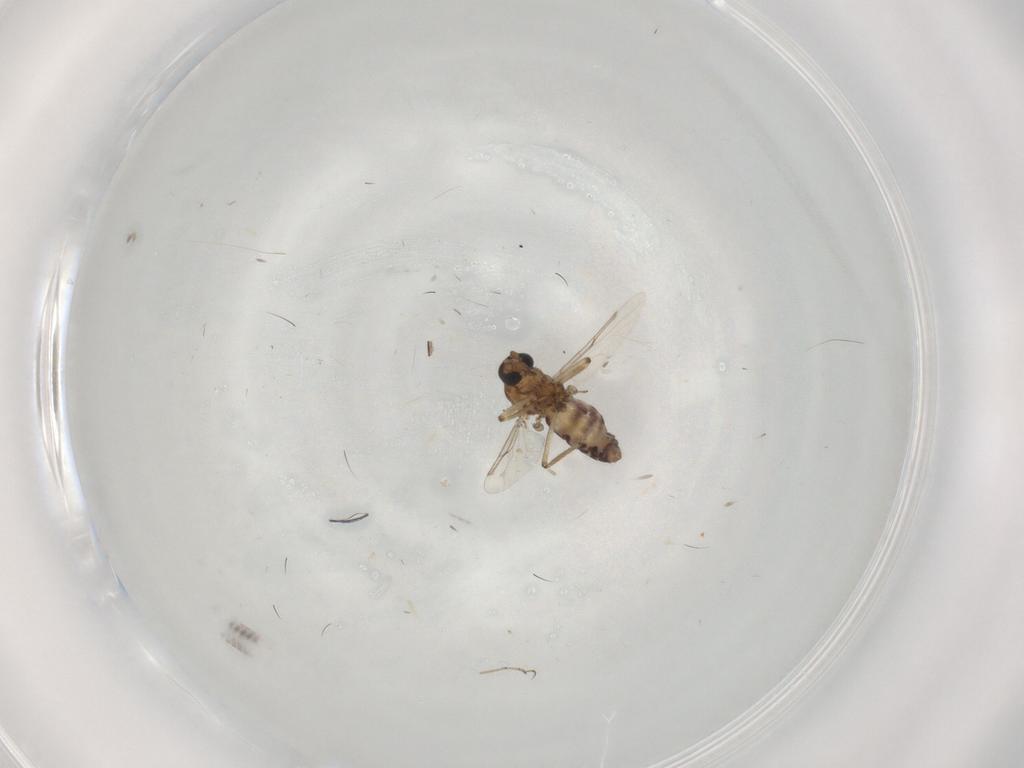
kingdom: Animalia
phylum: Arthropoda
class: Insecta
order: Diptera
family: Ceratopogonidae
